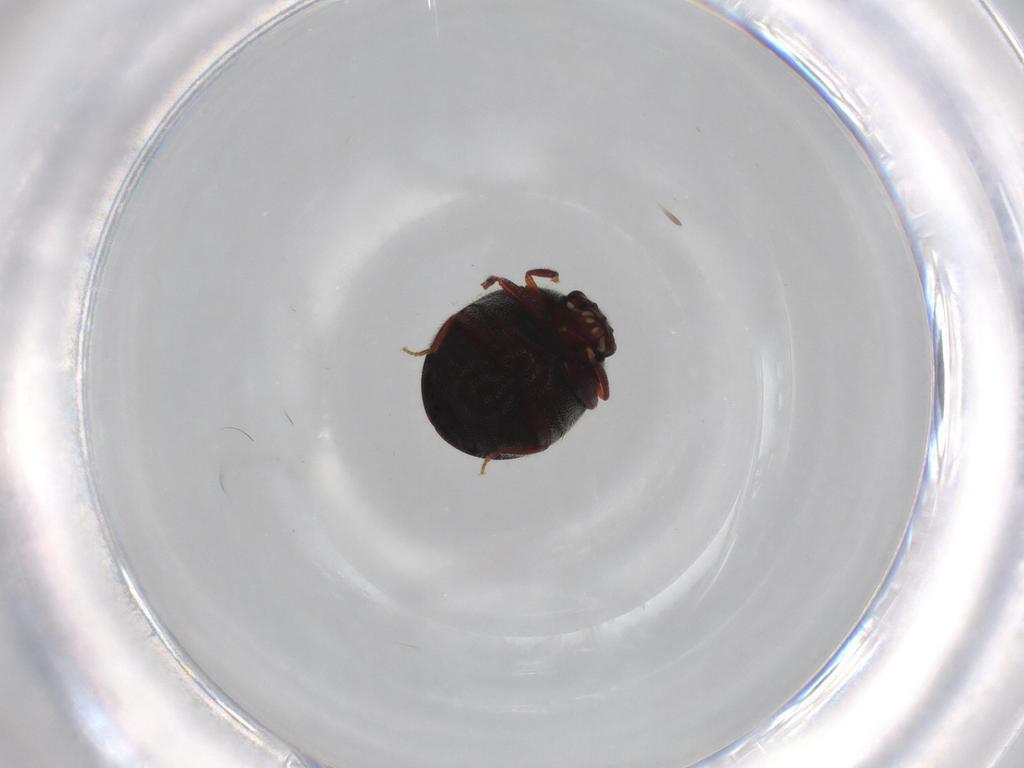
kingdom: Animalia
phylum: Arthropoda
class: Insecta
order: Coleoptera
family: Ptinidae
